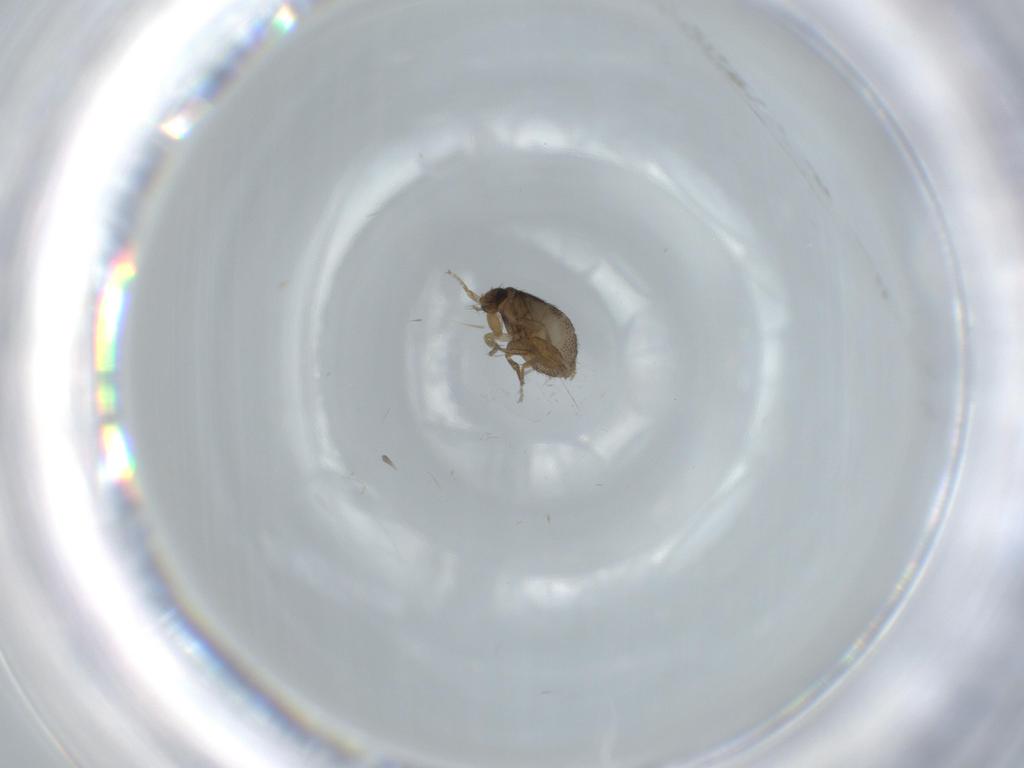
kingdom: Animalia
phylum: Arthropoda
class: Insecta
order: Diptera
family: Phoridae
